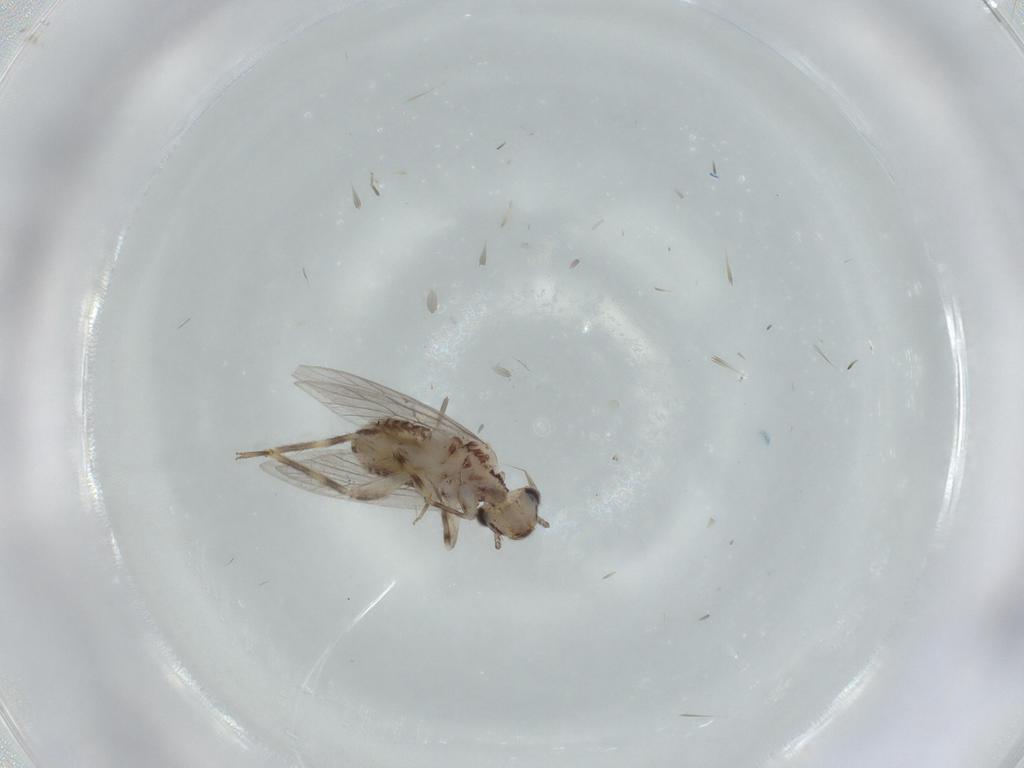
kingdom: Animalia
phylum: Arthropoda
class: Insecta
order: Psocodea
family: Lepidopsocidae
